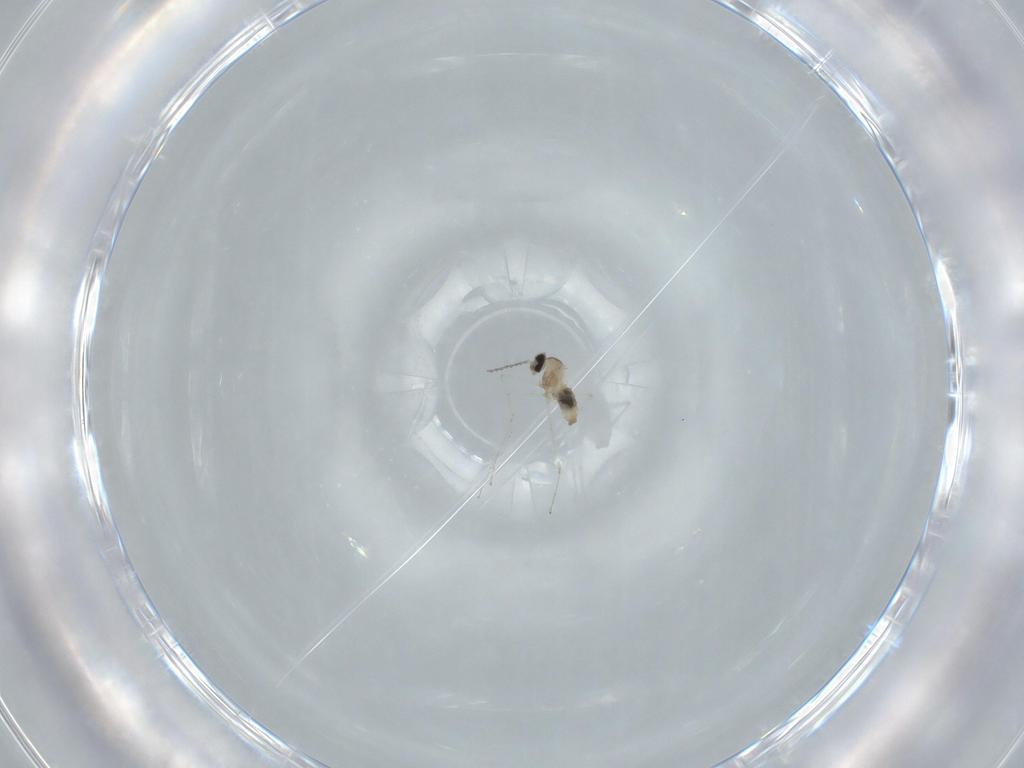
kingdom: Animalia
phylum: Arthropoda
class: Insecta
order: Diptera
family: Cecidomyiidae
